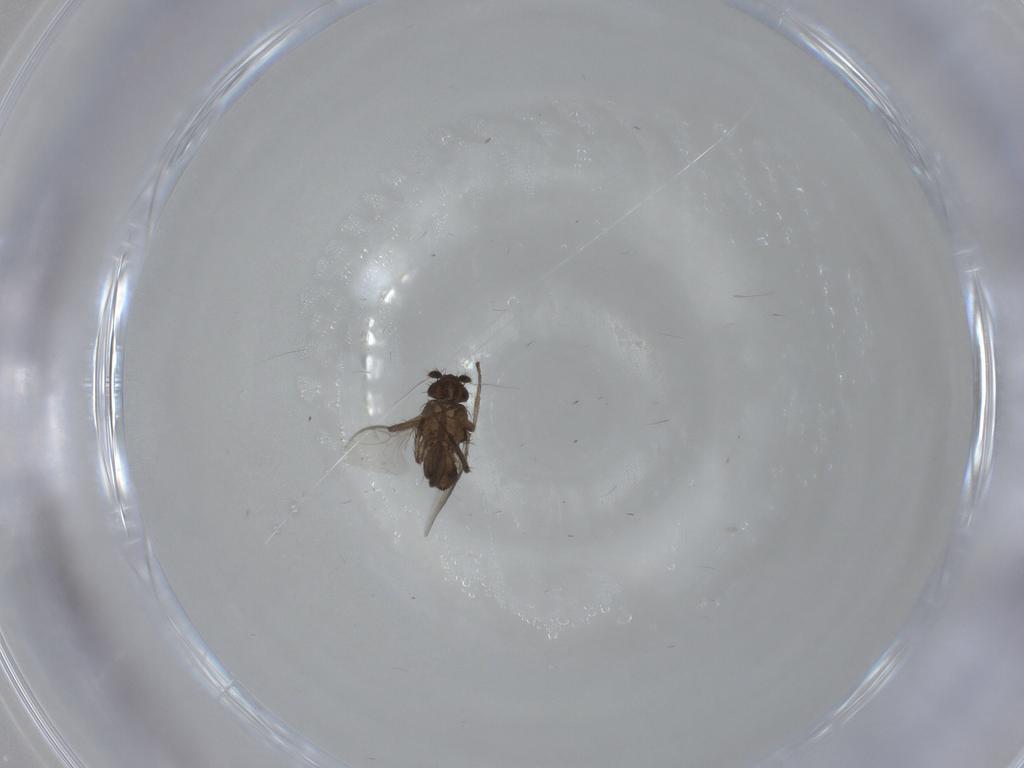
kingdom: Animalia
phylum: Arthropoda
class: Insecta
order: Diptera
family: Sphaeroceridae
